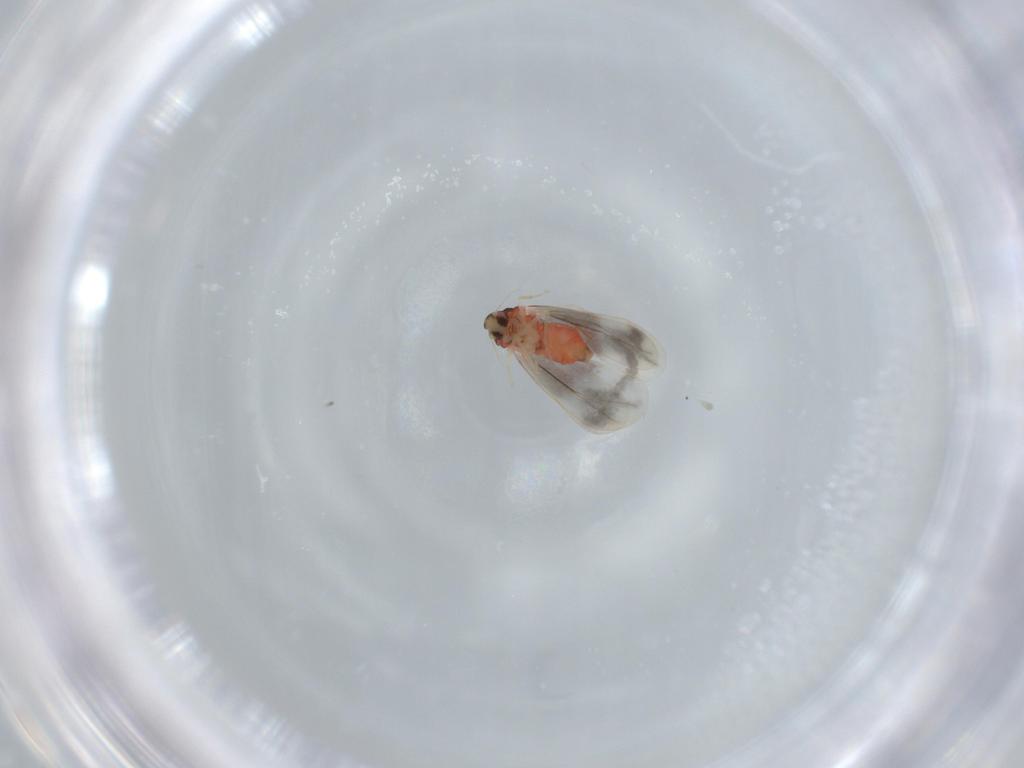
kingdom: Animalia
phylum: Arthropoda
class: Insecta
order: Hemiptera
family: Aleyrodidae
